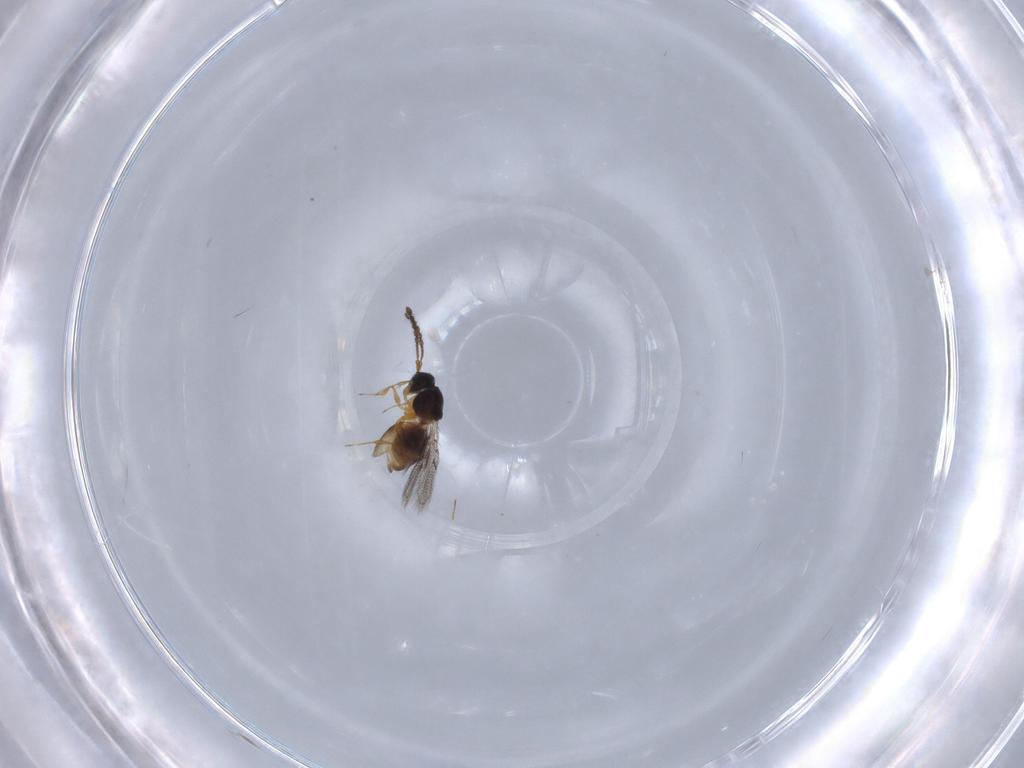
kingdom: Animalia
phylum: Arthropoda
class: Insecta
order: Hymenoptera
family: Figitidae
